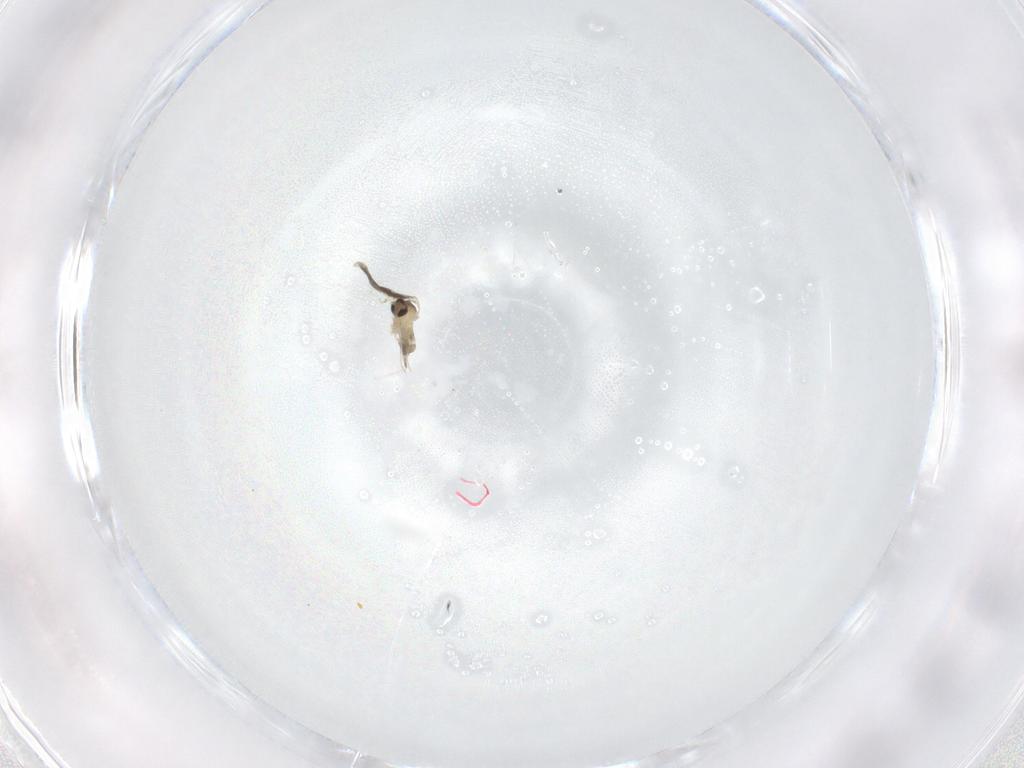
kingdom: Animalia
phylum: Arthropoda
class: Insecta
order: Diptera
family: Cecidomyiidae
